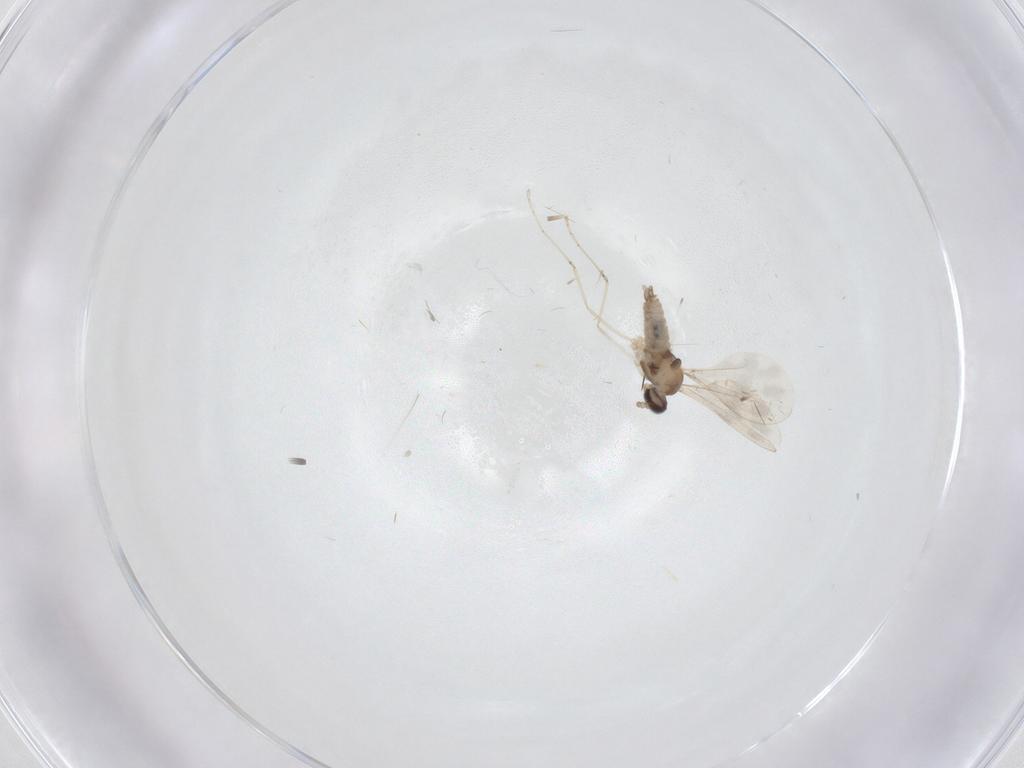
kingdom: Animalia
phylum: Arthropoda
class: Insecta
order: Diptera
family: Cecidomyiidae
